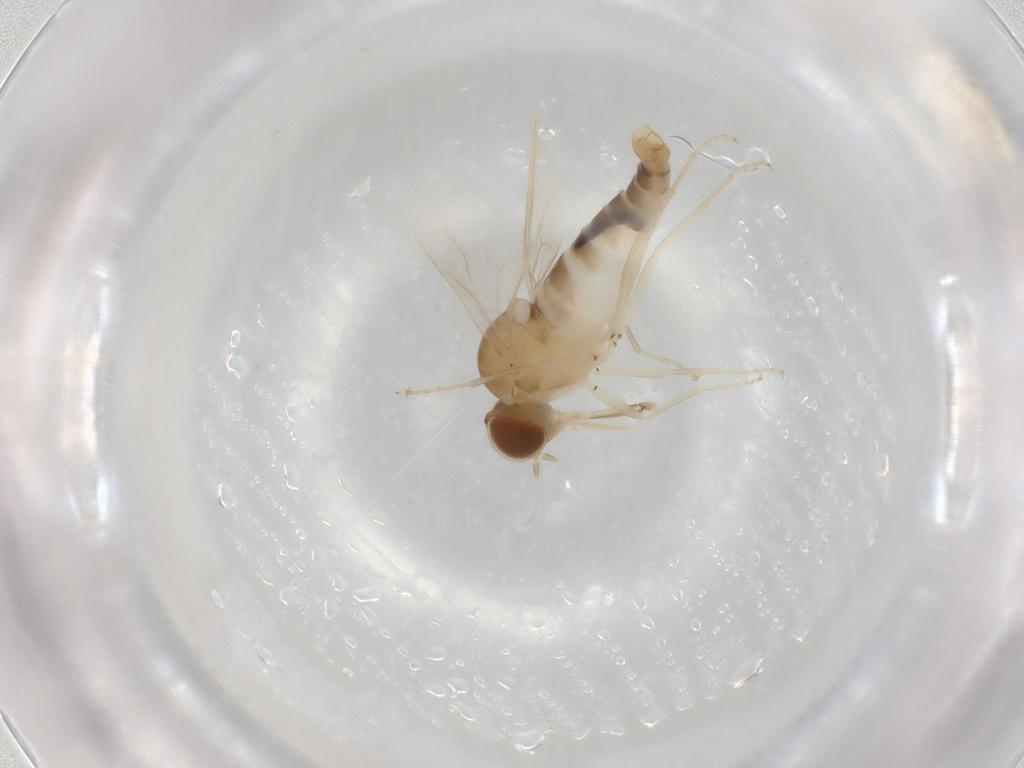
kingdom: Animalia
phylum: Arthropoda
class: Insecta
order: Diptera
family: Scenopinidae
